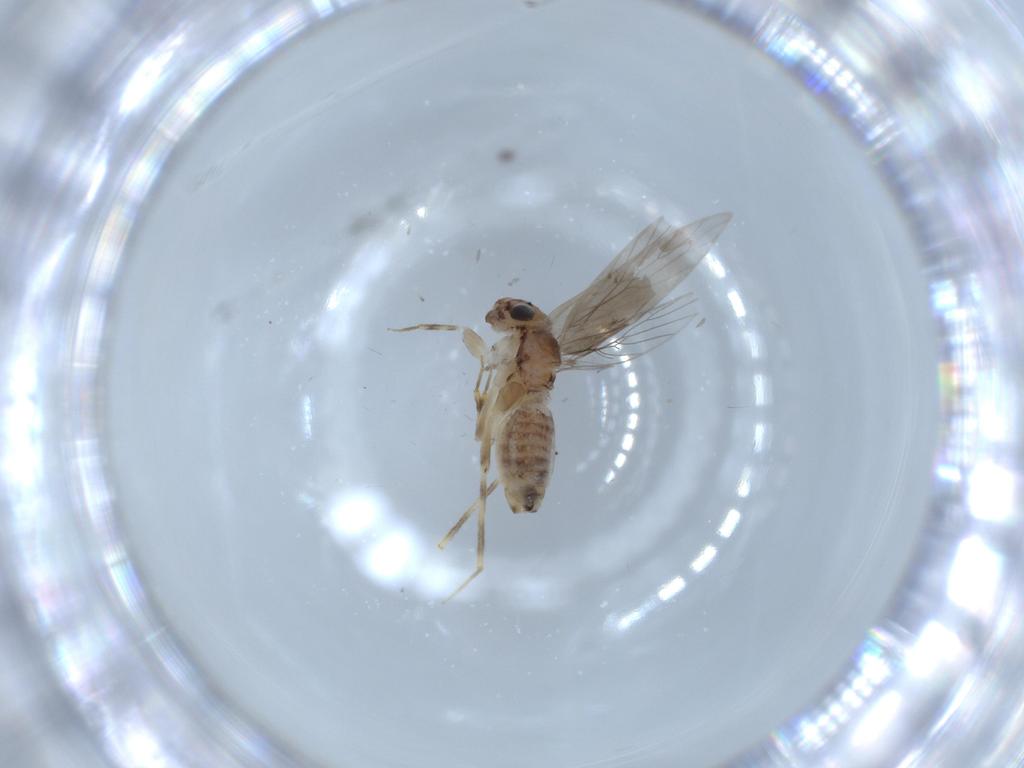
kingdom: Animalia
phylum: Arthropoda
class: Insecta
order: Psocodea
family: Lepidopsocidae
